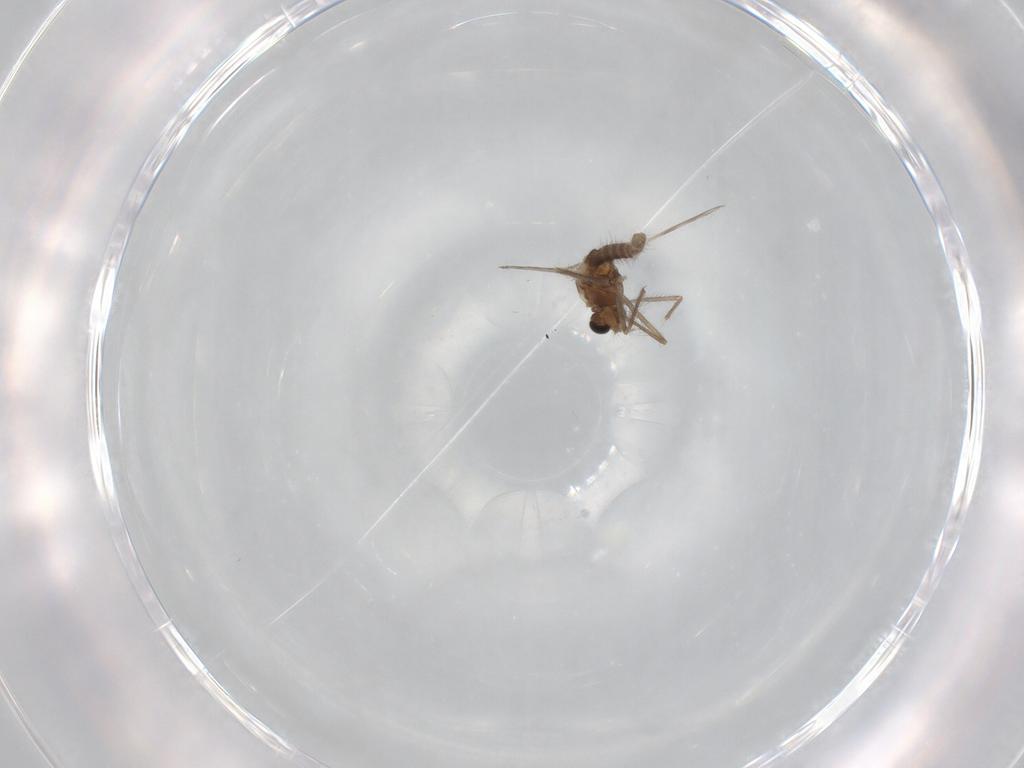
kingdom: Animalia
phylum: Arthropoda
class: Insecta
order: Diptera
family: Chironomidae
